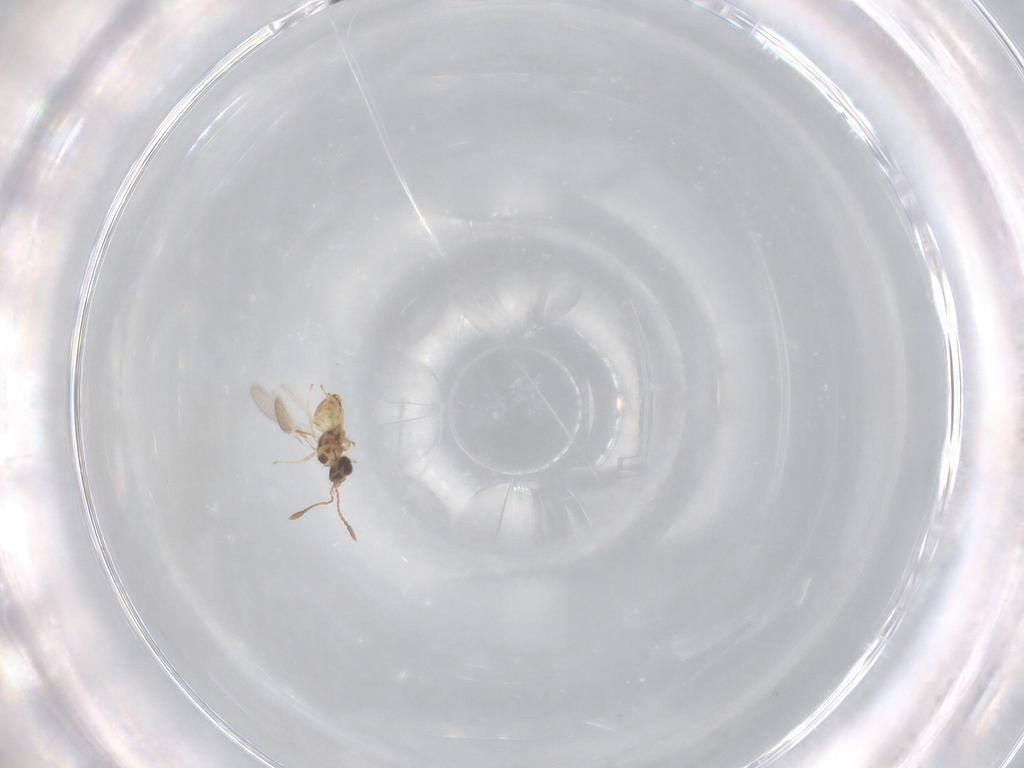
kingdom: Animalia
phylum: Arthropoda
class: Insecta
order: Hymenoptera
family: Mymaridae
